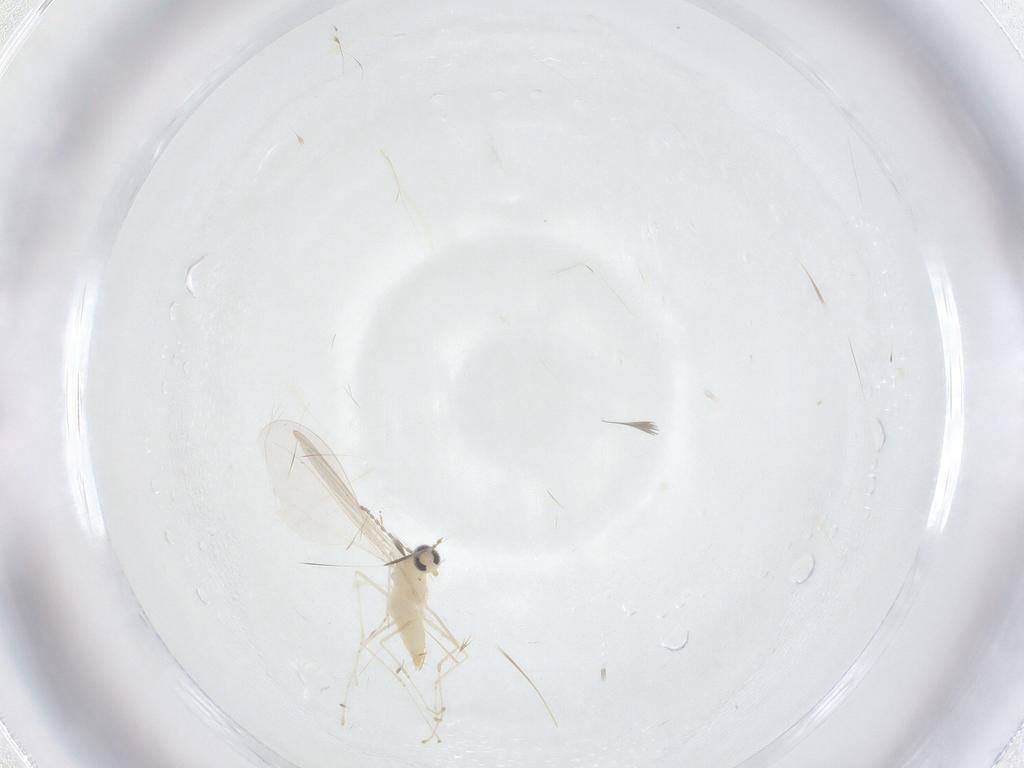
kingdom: Animalia
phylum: Arthropoda
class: Insecta
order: Diptera
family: Cecidomyiidae
